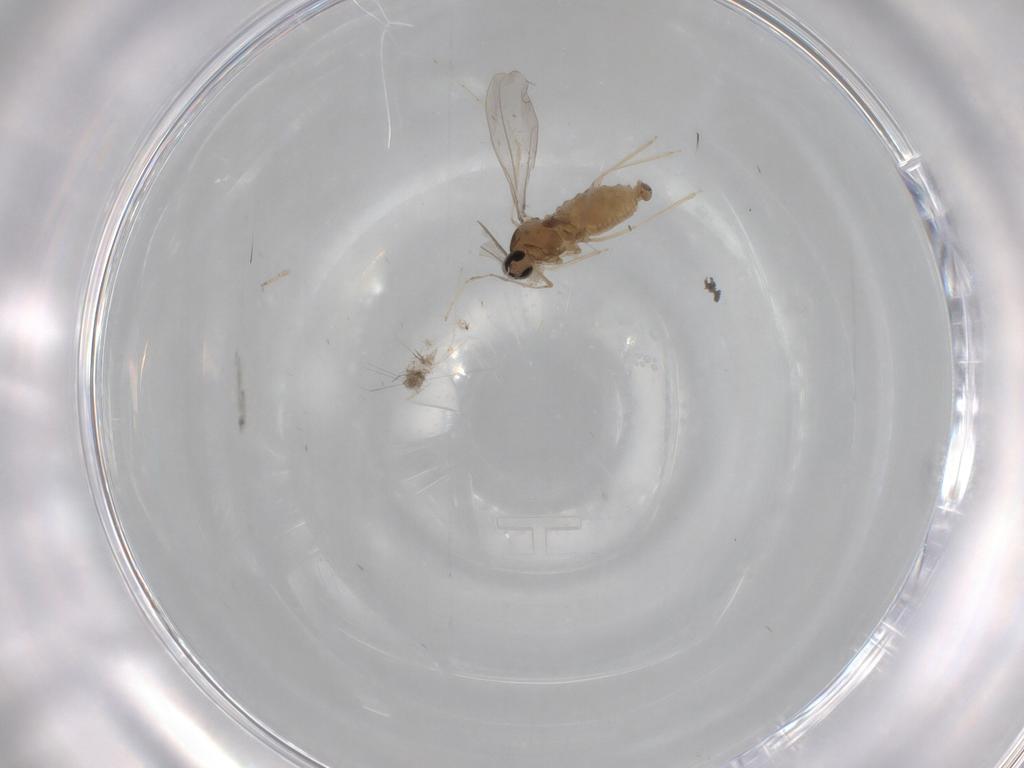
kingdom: Animalia
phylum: Arthropoda
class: Insecta
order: Diptera
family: Cecidomyiidae
